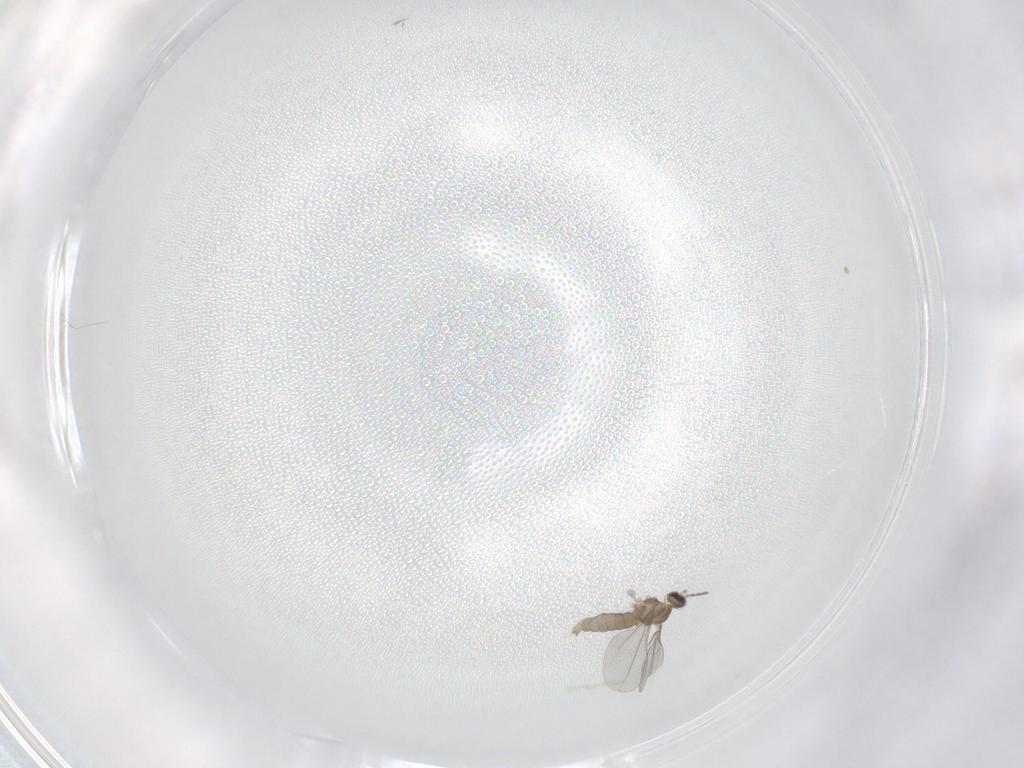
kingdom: Animalia
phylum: Arthropoda
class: Insecta
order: Diptera
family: Cecidomyiidae
